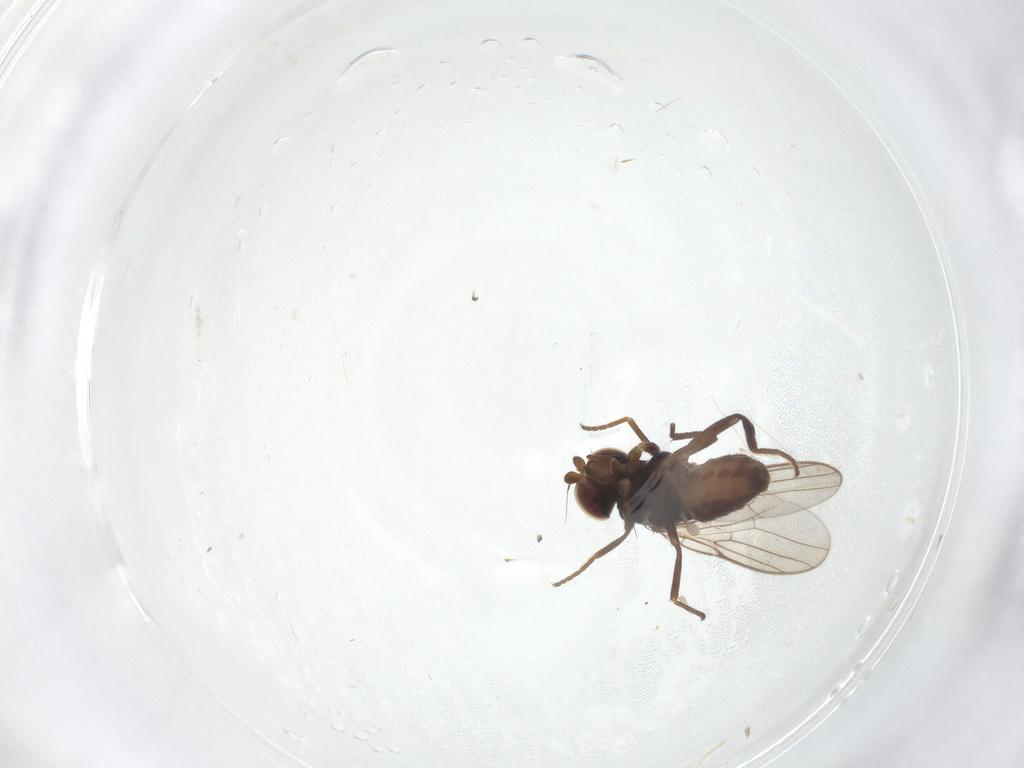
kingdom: Animalia
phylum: Arthropoda
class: Insecta
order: Diptera
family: Chloropidae
